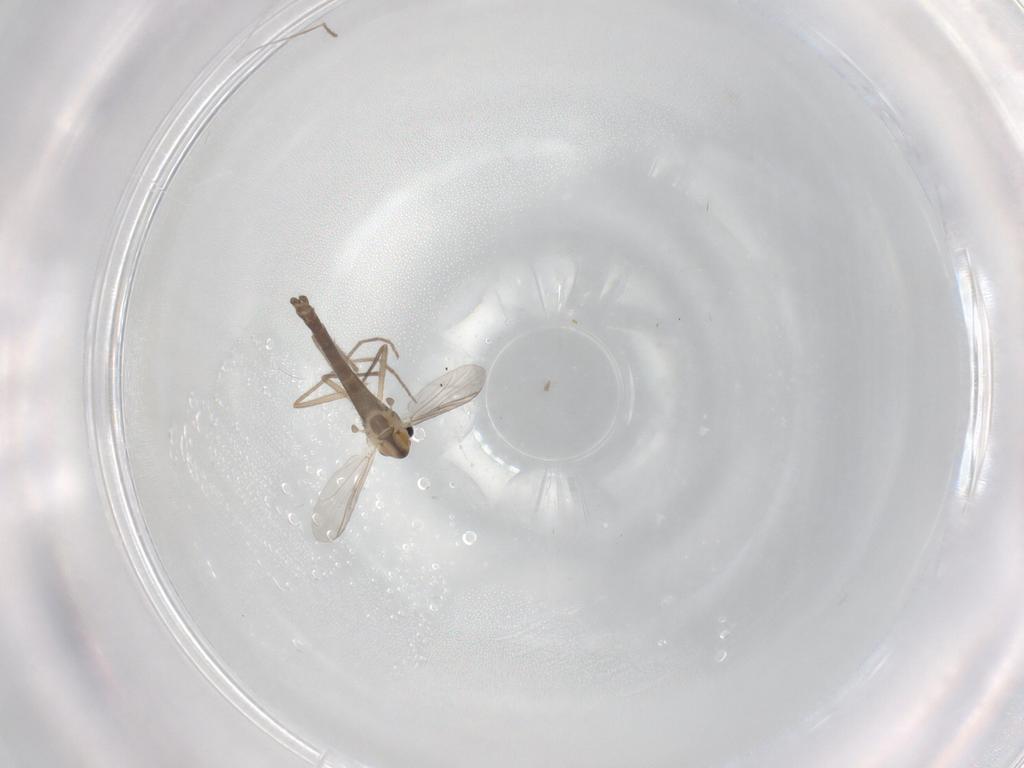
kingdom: Animalia
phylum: Arthropoda
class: Insecta
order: Diptera
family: Chironomidae
